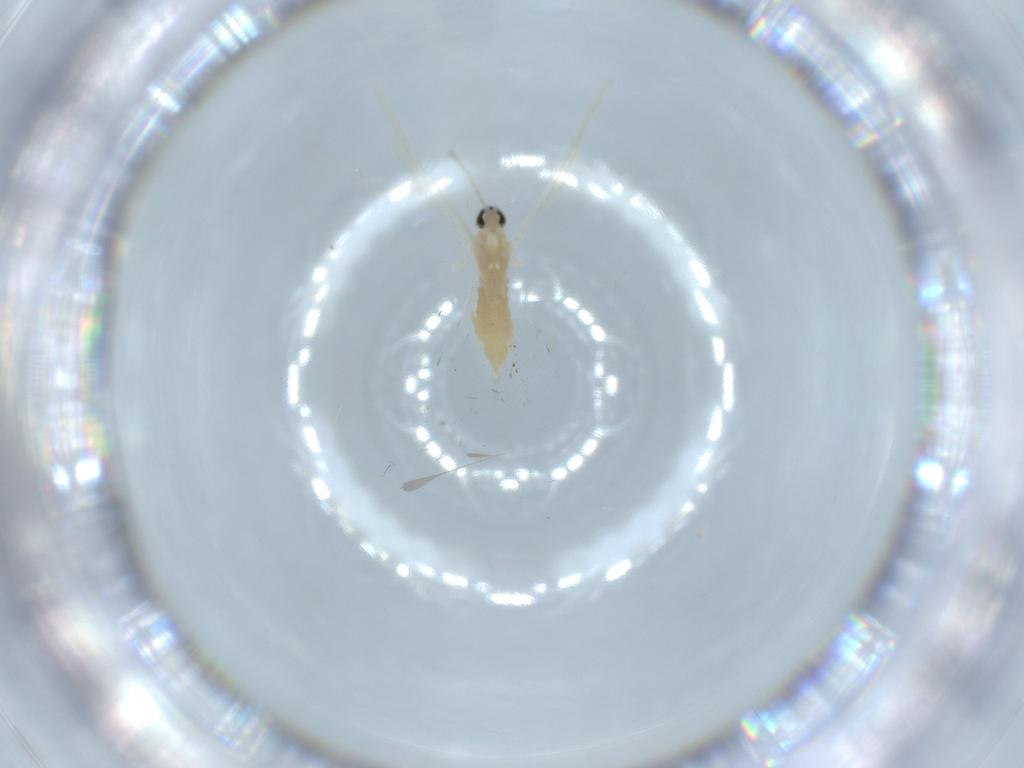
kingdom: Animalia
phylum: Arthropoda
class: Insecta
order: Diptera
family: Cecidomyiidae
